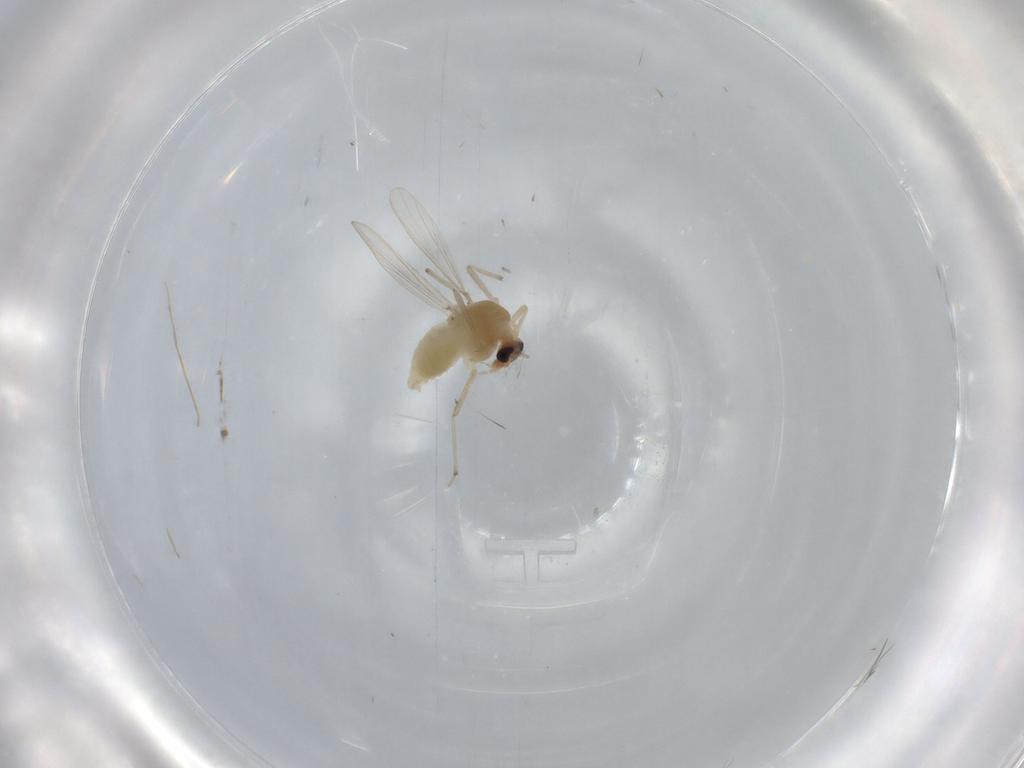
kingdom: Animalia
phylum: Arthropoda
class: Insecta
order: Diptera
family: Chironomidae
